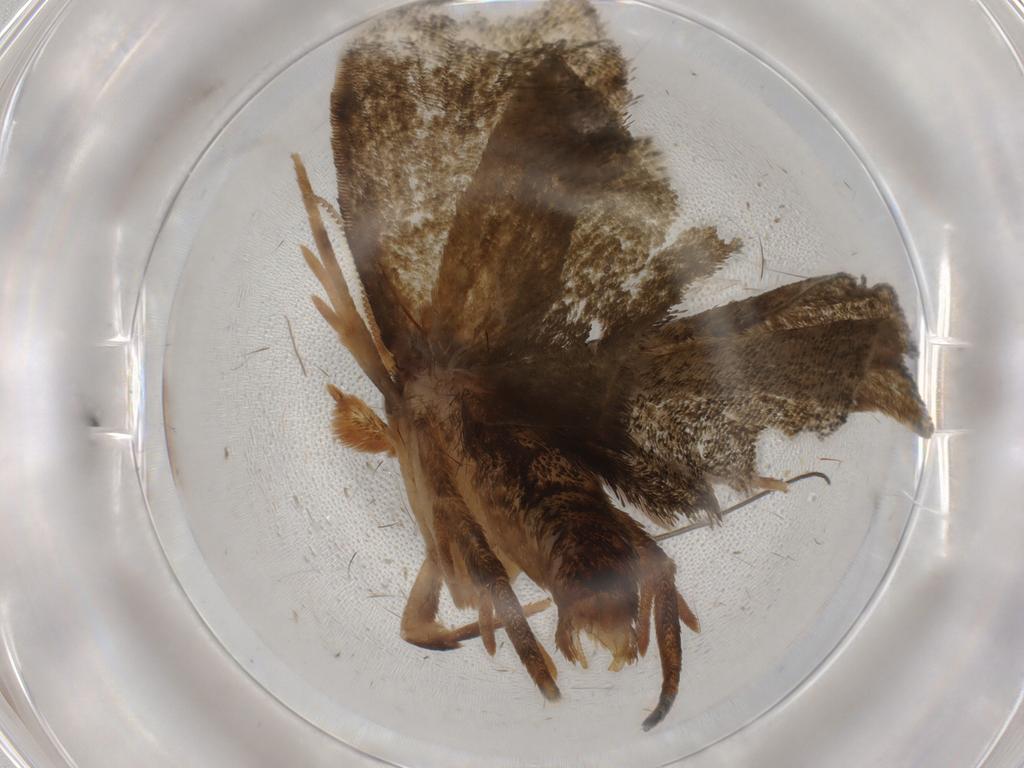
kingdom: Animalia
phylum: Arthropoda
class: Insecta
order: Lepidoptera
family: Geometridae
